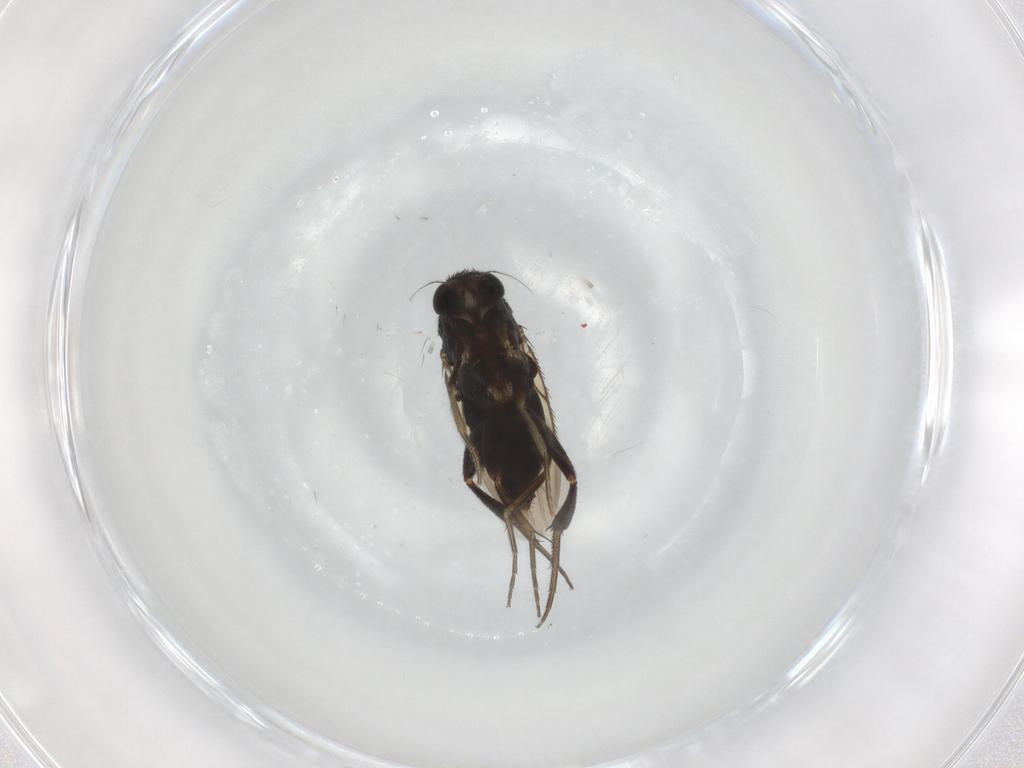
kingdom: Animalia
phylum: Arthropoda
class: Insecta
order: Diptera
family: Phoridae
